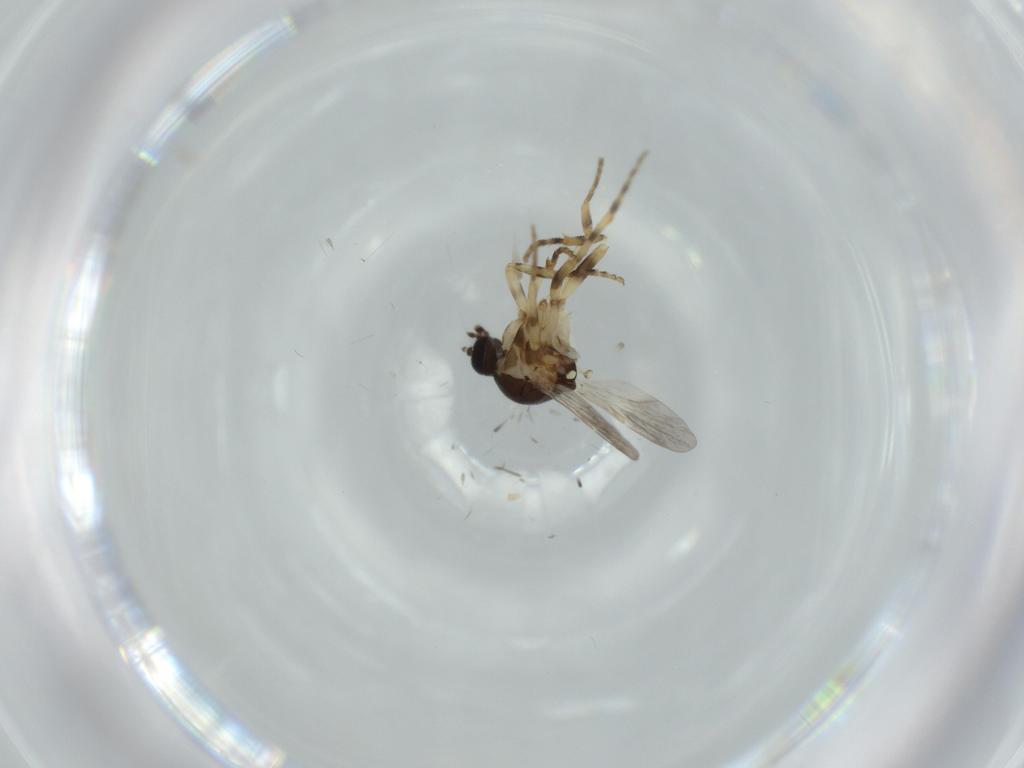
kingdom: Animalia
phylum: Arthropoda
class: Insecta
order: Diptera
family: Ceratopogonidae
